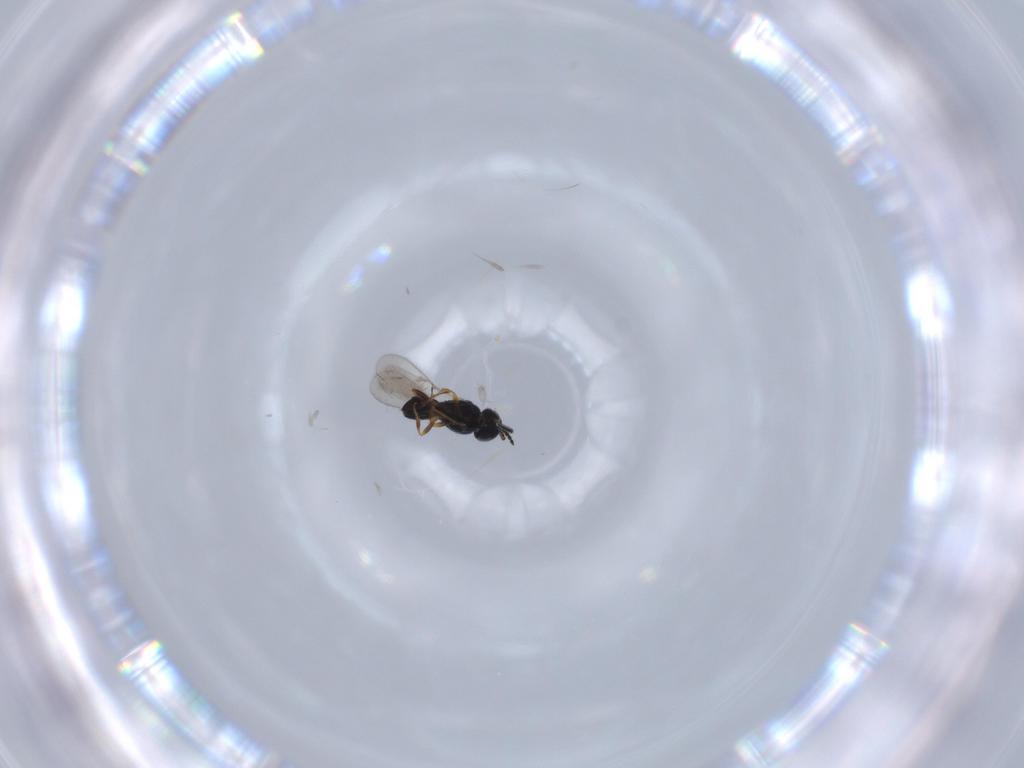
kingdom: Animalia
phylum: Arthropoda
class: Insecta
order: Hymenoptera
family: Scelionidae
